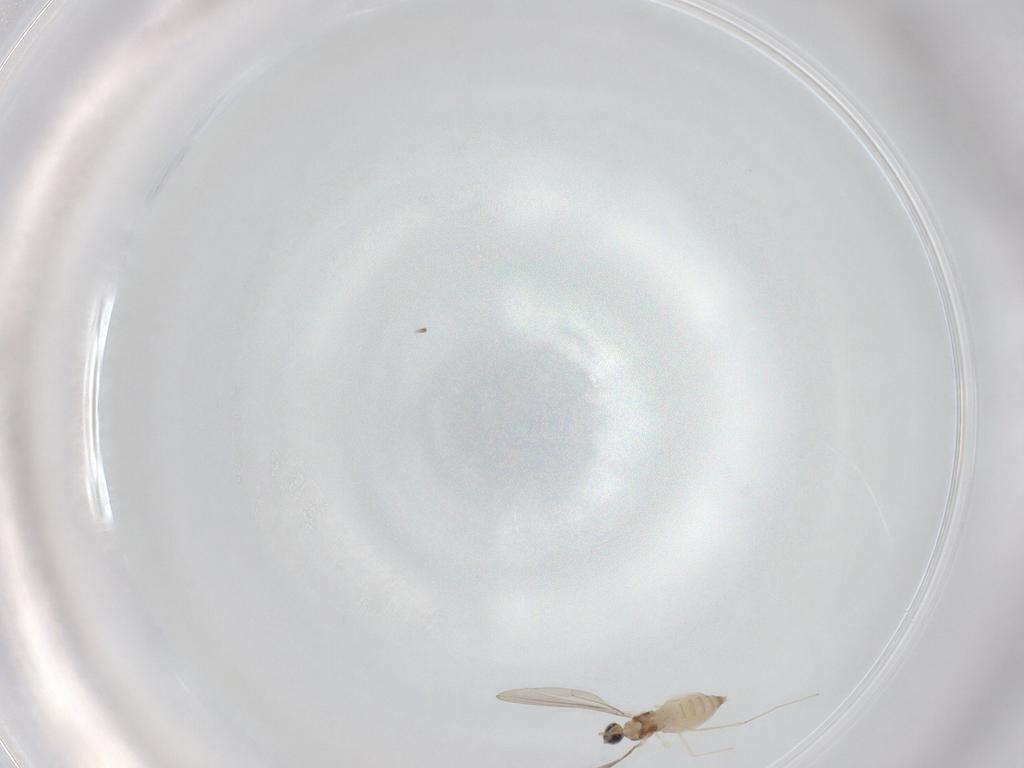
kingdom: Animalia
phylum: Arthropoda
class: Insecta
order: Diptera
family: Cecidomyiidae
